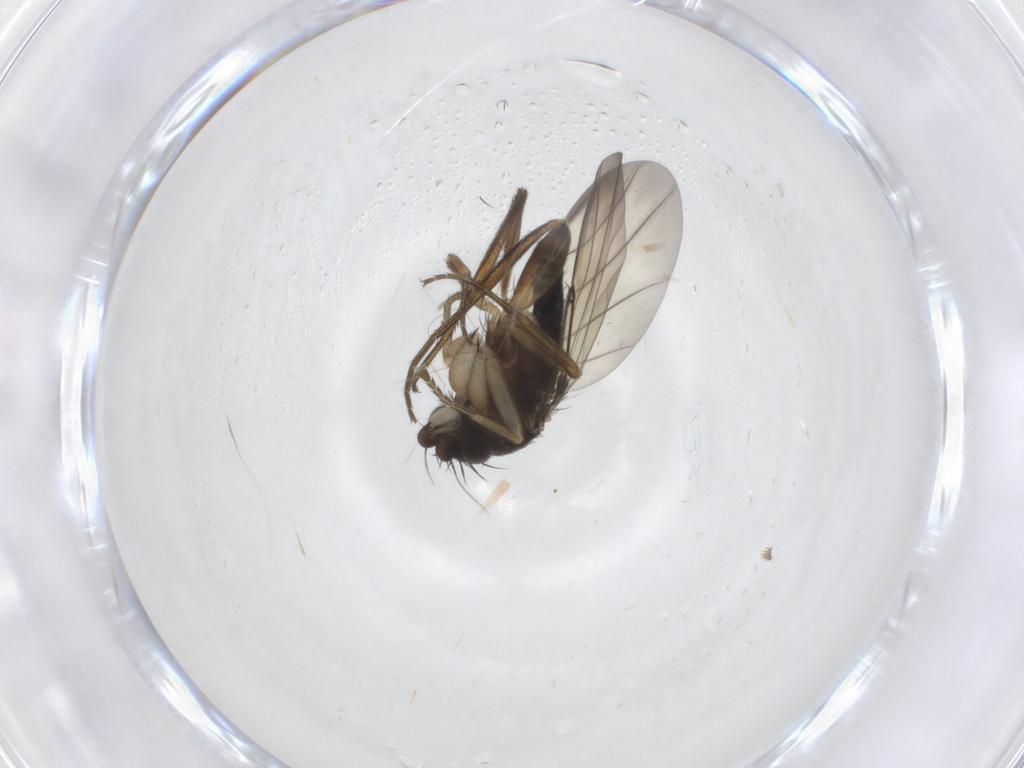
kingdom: Animalia
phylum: Arthropoda
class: Insecta
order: Diptera
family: Phoridae
